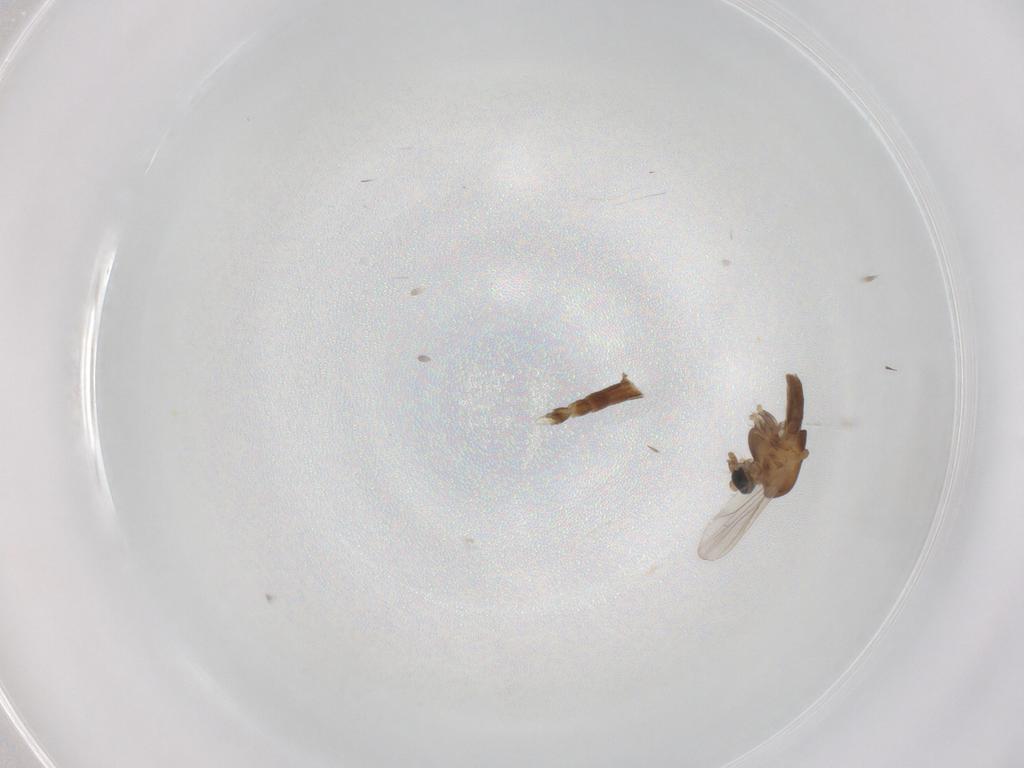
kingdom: Animalia
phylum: Arthropoda
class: Insecta
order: Diptera
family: Chironomidae
